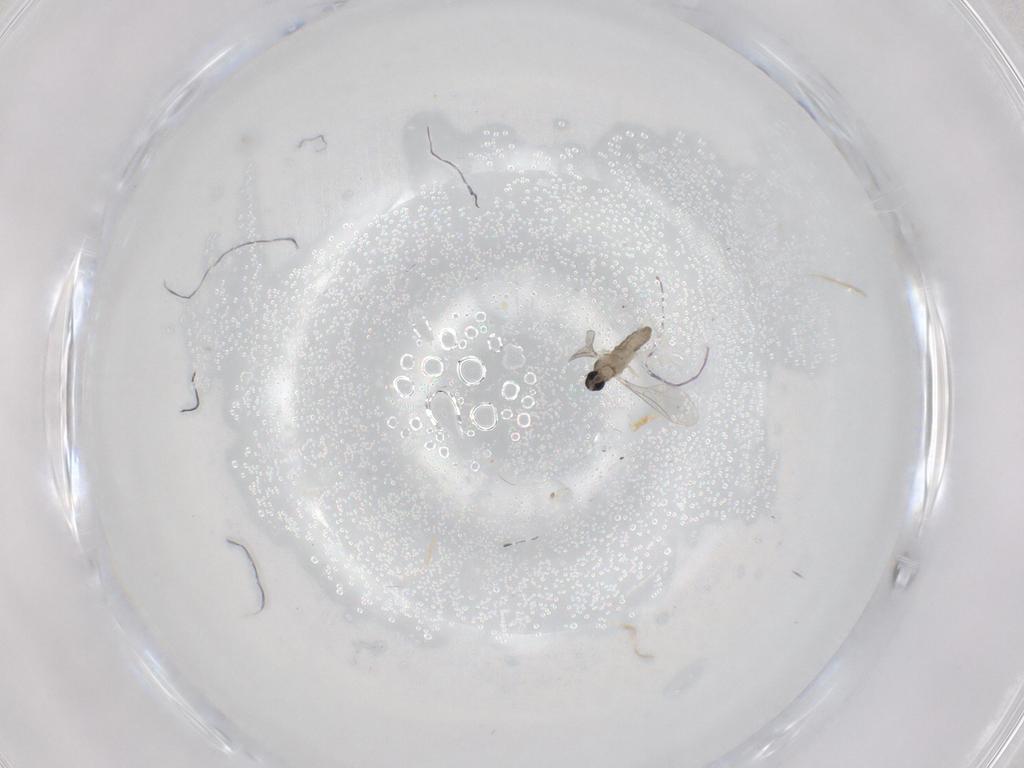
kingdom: Animalia
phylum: Arthropoda
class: Insecta
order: Diptera
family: Cecidomyiidae
